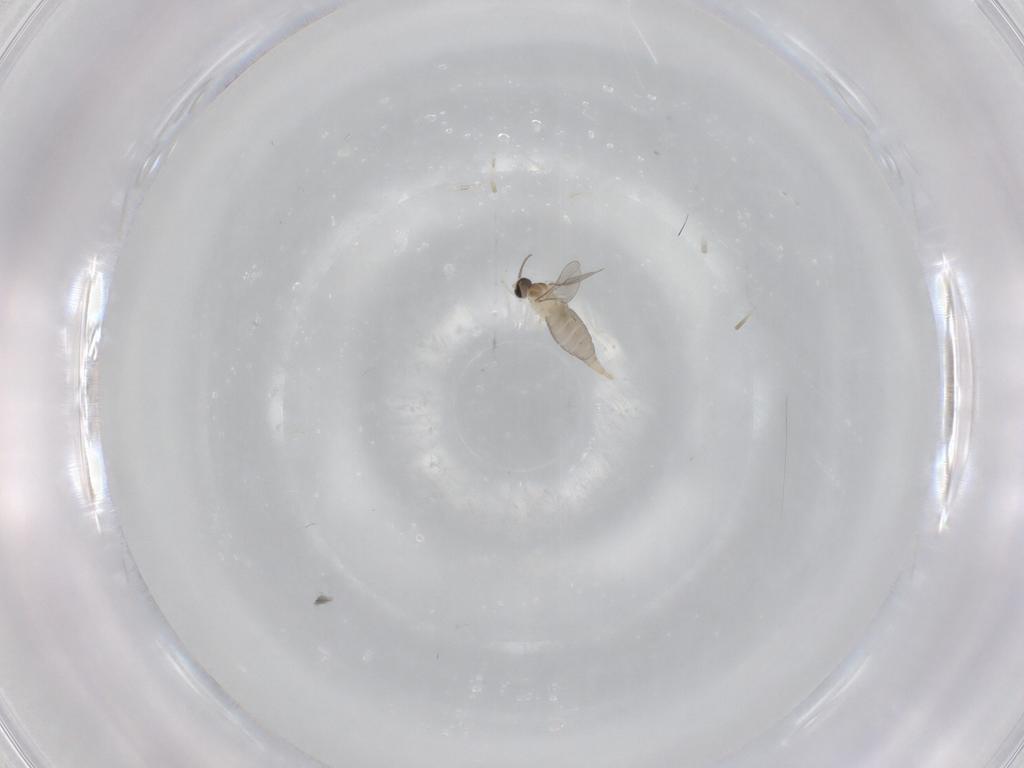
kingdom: Animalia
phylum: Arthropoda
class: Insecta
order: Diptera
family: Cecidomyiidae
